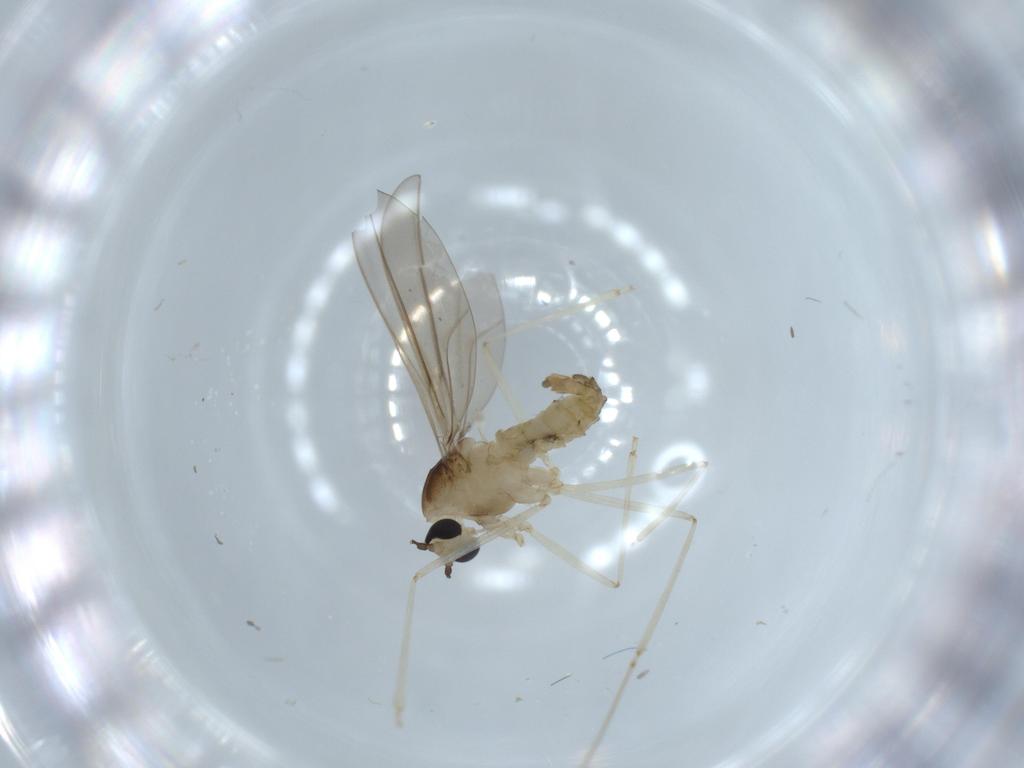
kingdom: Animalia
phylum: Arthropoda
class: Insecta
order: Diptera
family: Cecidomyiidae
